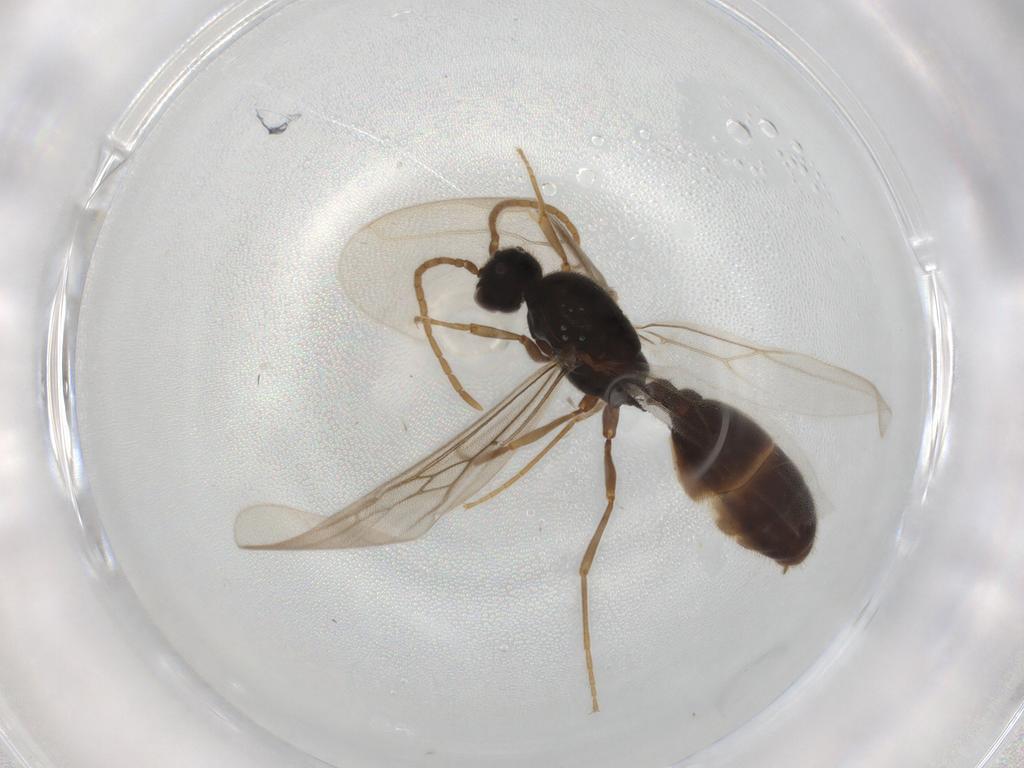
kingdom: Animalia
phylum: Arthropoda
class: Insecta
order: Hymenoptera
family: Formicidae
